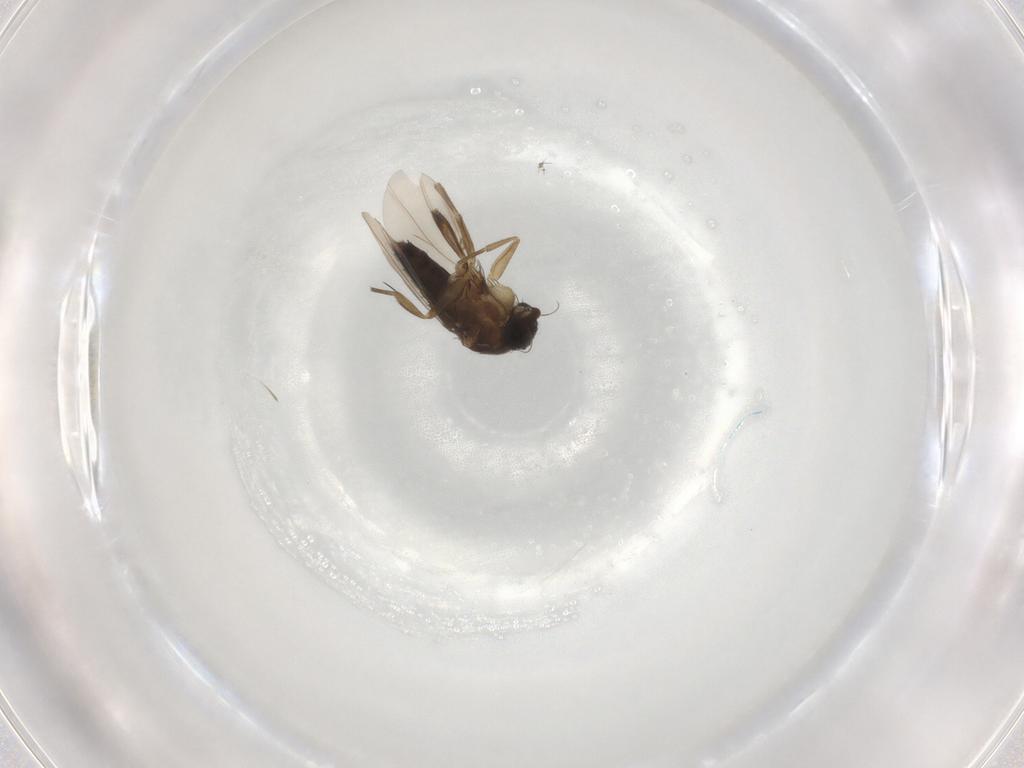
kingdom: Animalia
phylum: Arthropoda
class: Insecta
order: Diptera
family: Phoridae
